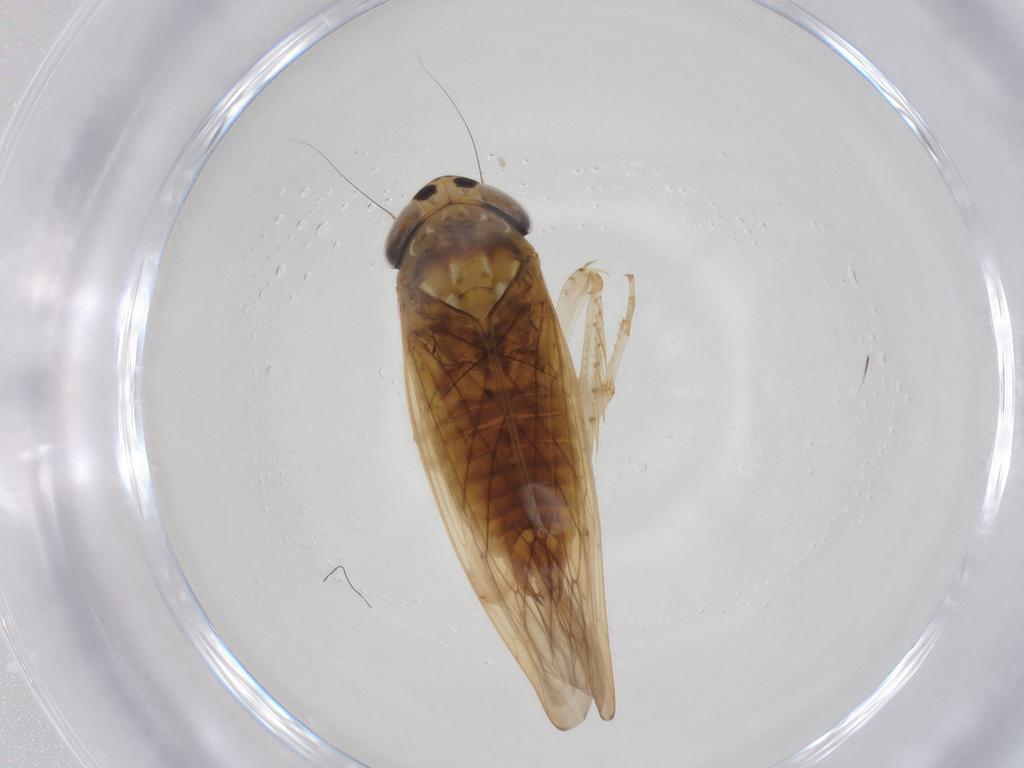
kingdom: Animalia
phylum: Arthropoda
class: Insecta
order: Hemiptera
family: Cicadellidae
